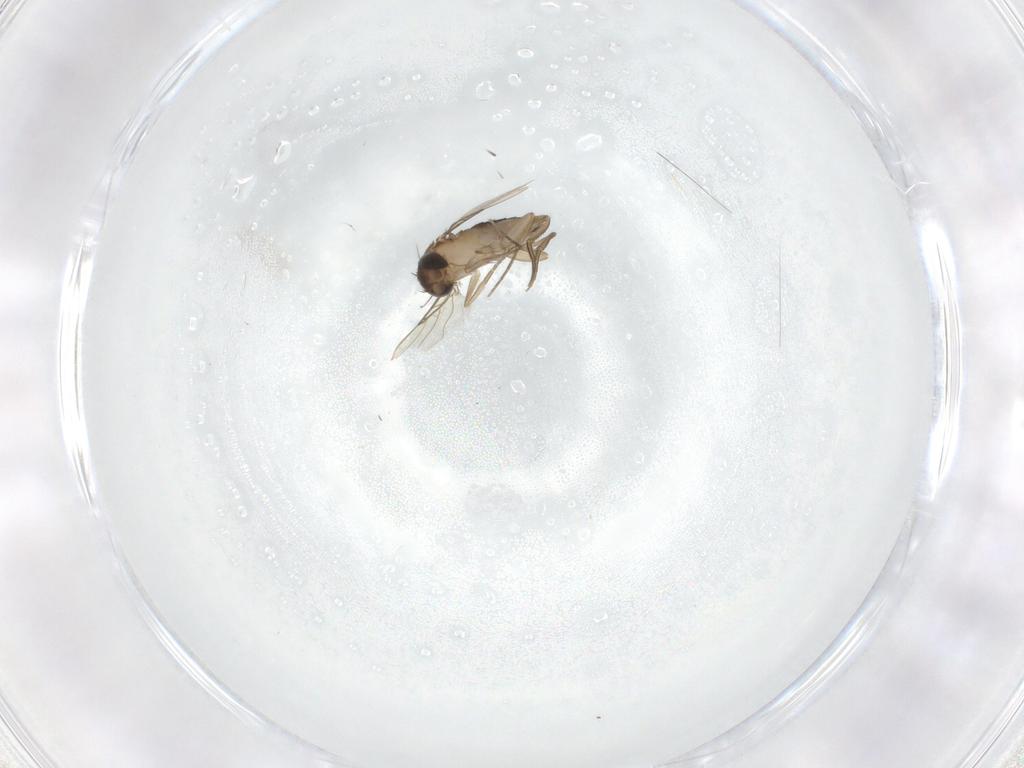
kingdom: Animalia
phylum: Arthropoda
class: Insecta
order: Diptera
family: Phoridae
